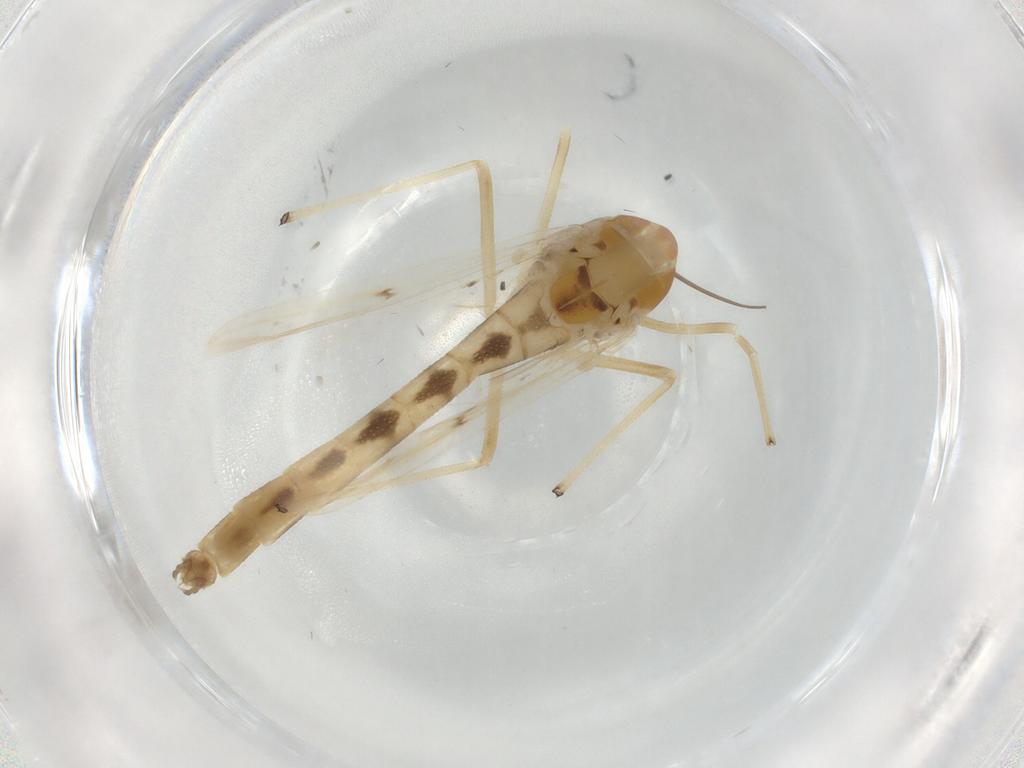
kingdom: Animalia
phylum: Arthropoda
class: Insecta
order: Diptera
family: Chironomidae
